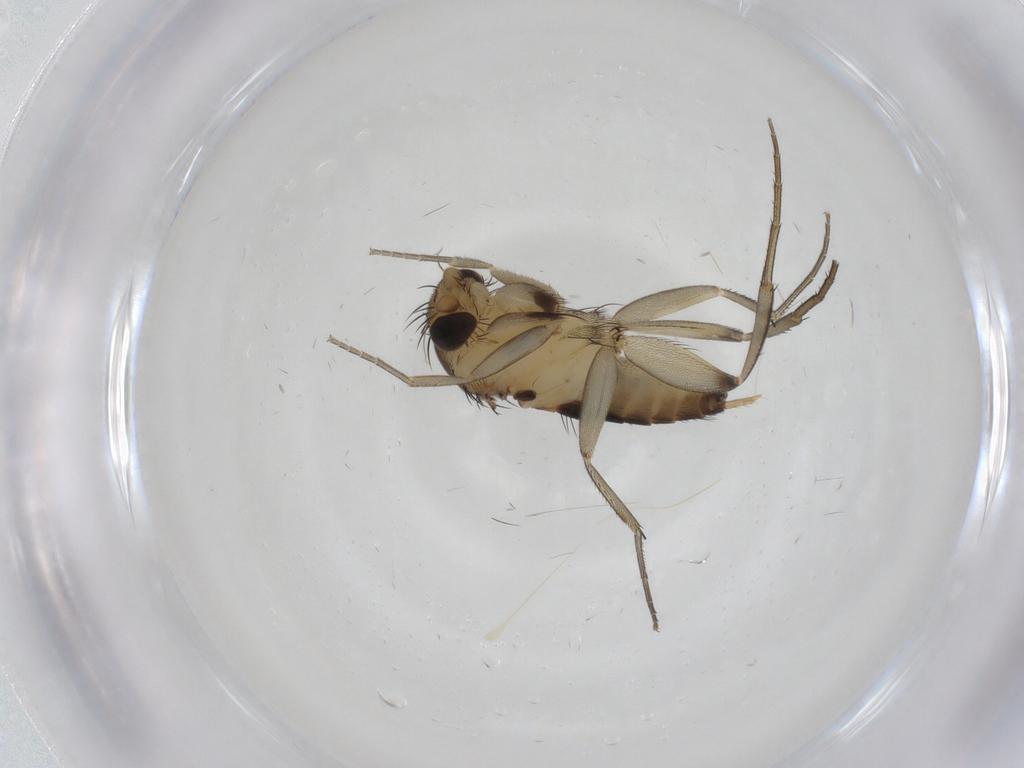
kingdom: Animalia
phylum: Arthropoda
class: Insecta
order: Diptera
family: Phoridae
